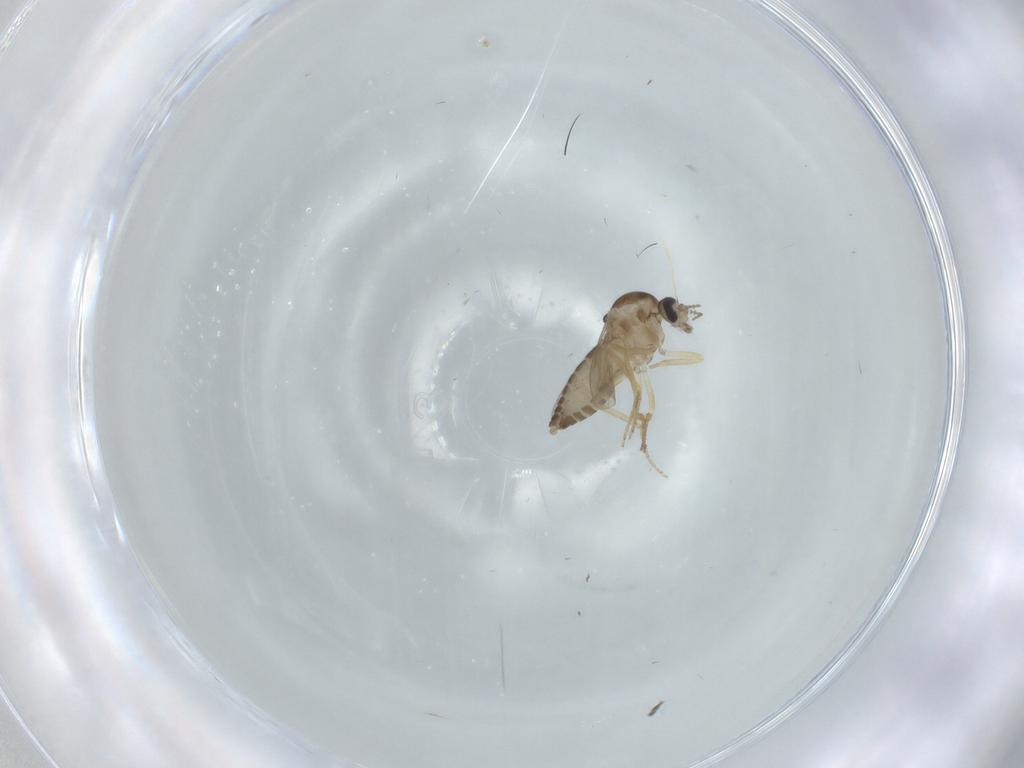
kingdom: Animalia
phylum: Arthropoda
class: Insecta
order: Diptera
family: Ceratopogonidae
